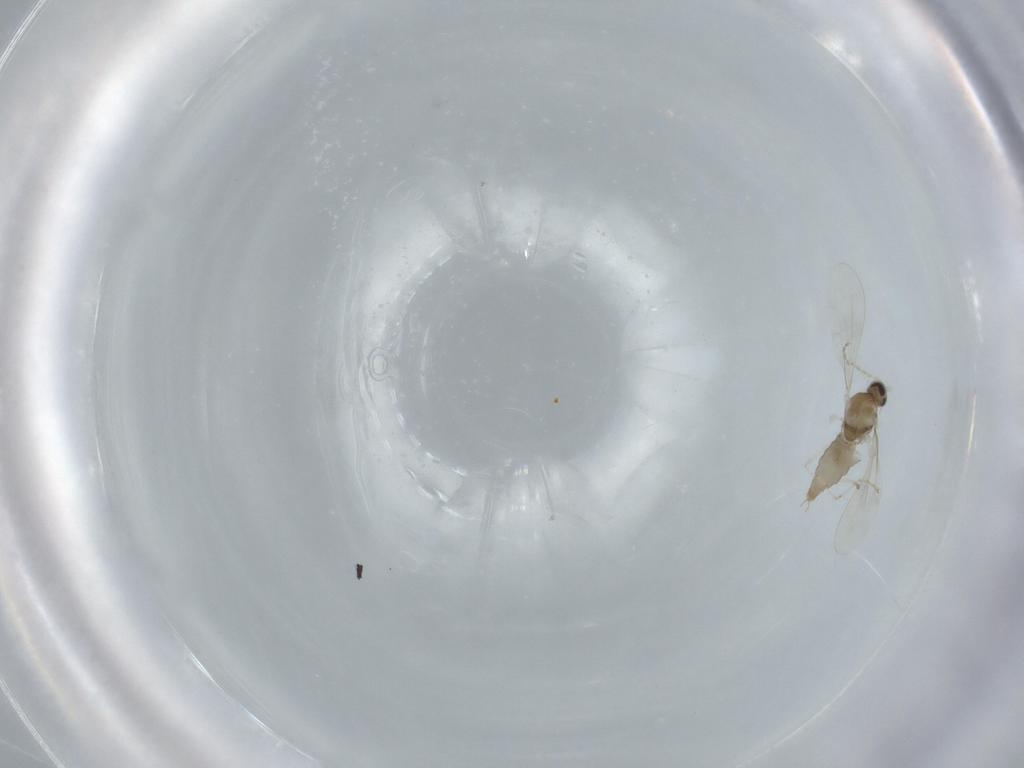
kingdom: Animalia
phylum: Arthropoda
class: Insecta
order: Diptera
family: Cecidomyiidae
